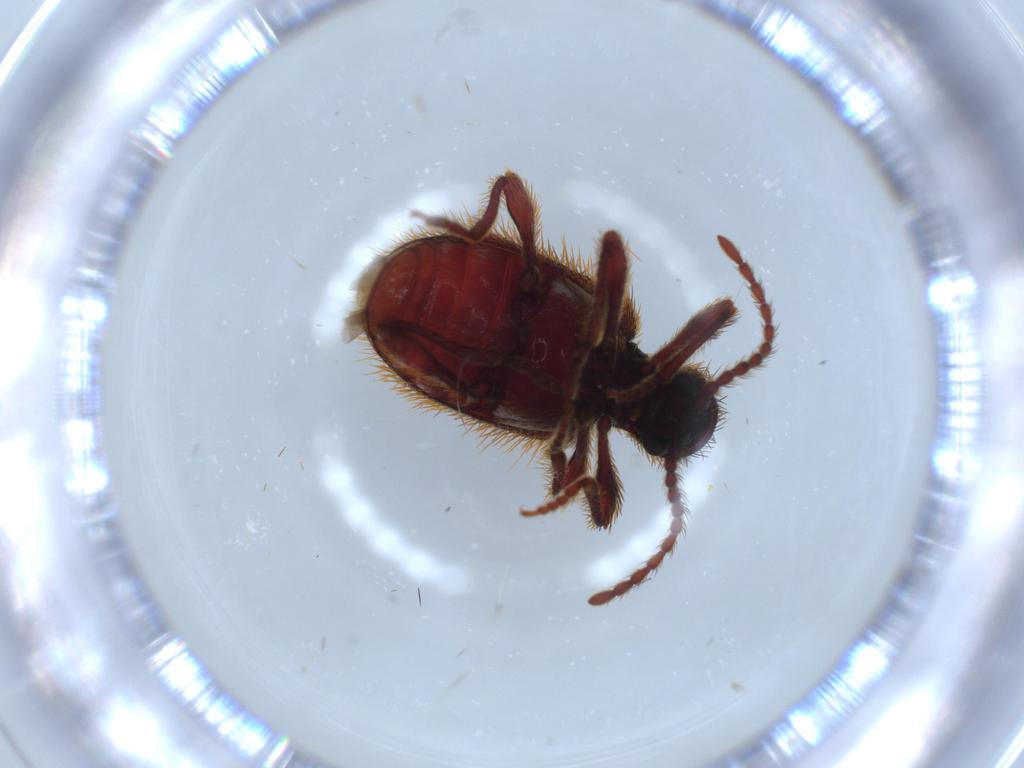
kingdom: Animalia
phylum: Arthropoda
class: Insecta
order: Coleoptera
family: Ptinidae
